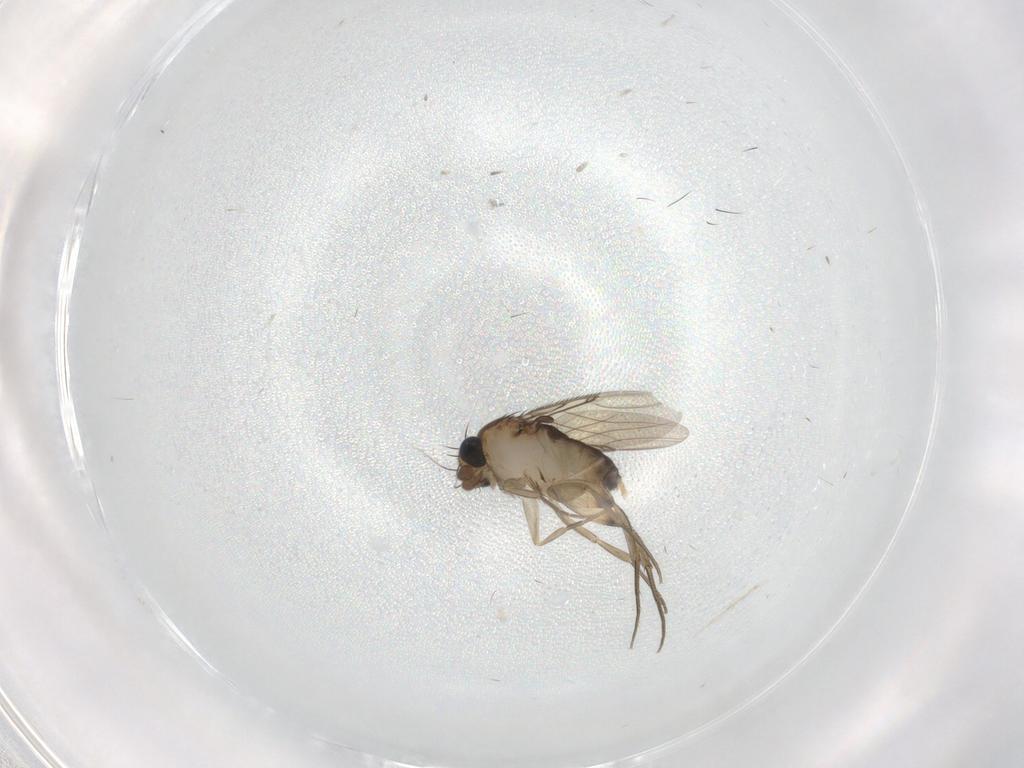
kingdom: Animalia
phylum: Arthropoda
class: Insecta
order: Diptera
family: Phoridae
